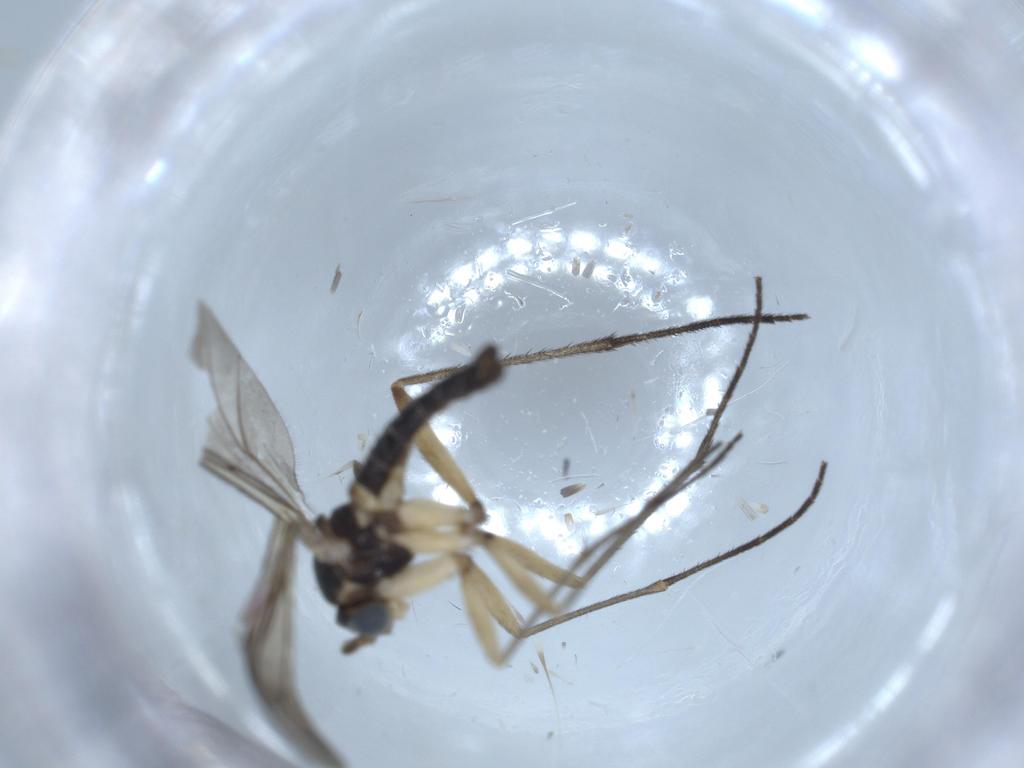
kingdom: Animalia
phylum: Arthropoda
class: Insecta
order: Diptera
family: Sciaridae
